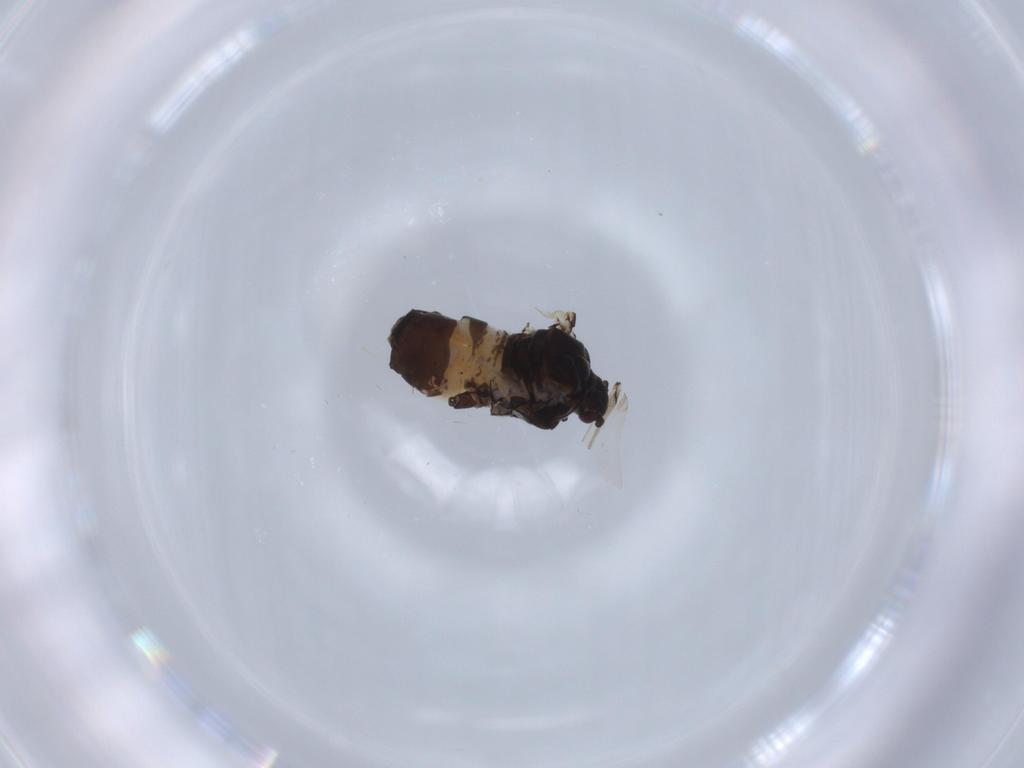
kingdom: Animalia
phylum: Arthropoda
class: Insecta
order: Hemiptera
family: Aphididae
